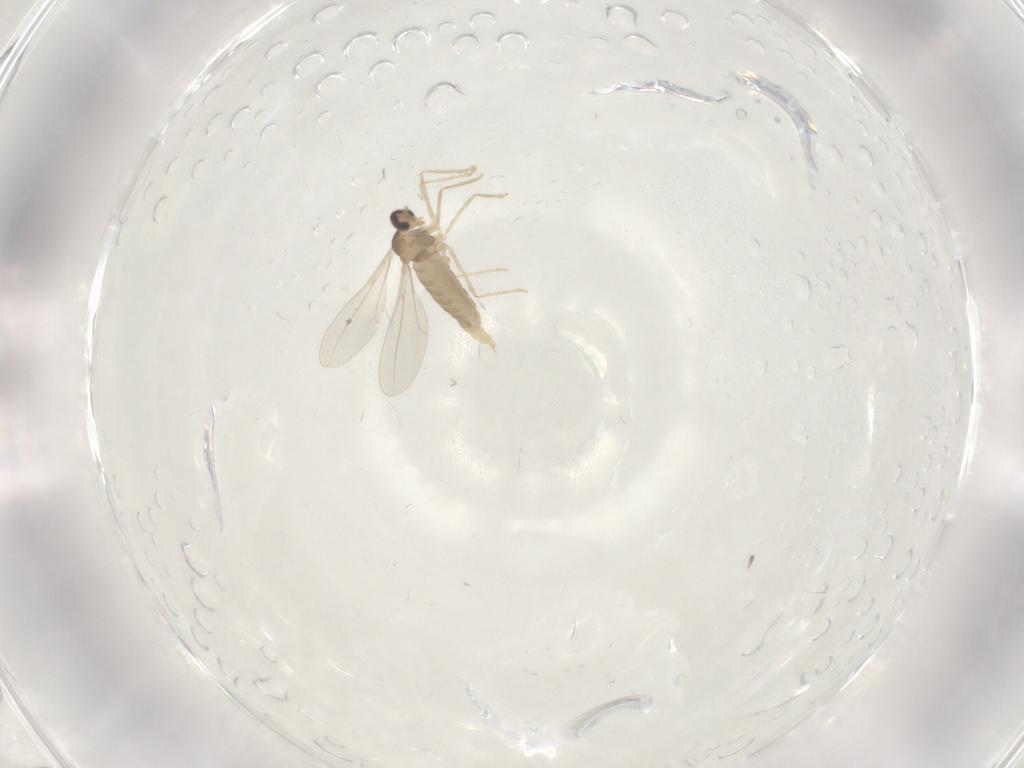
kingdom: Animalia
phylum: Arthropoda
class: Insecta
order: Diptera
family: Cecidomyiidae
